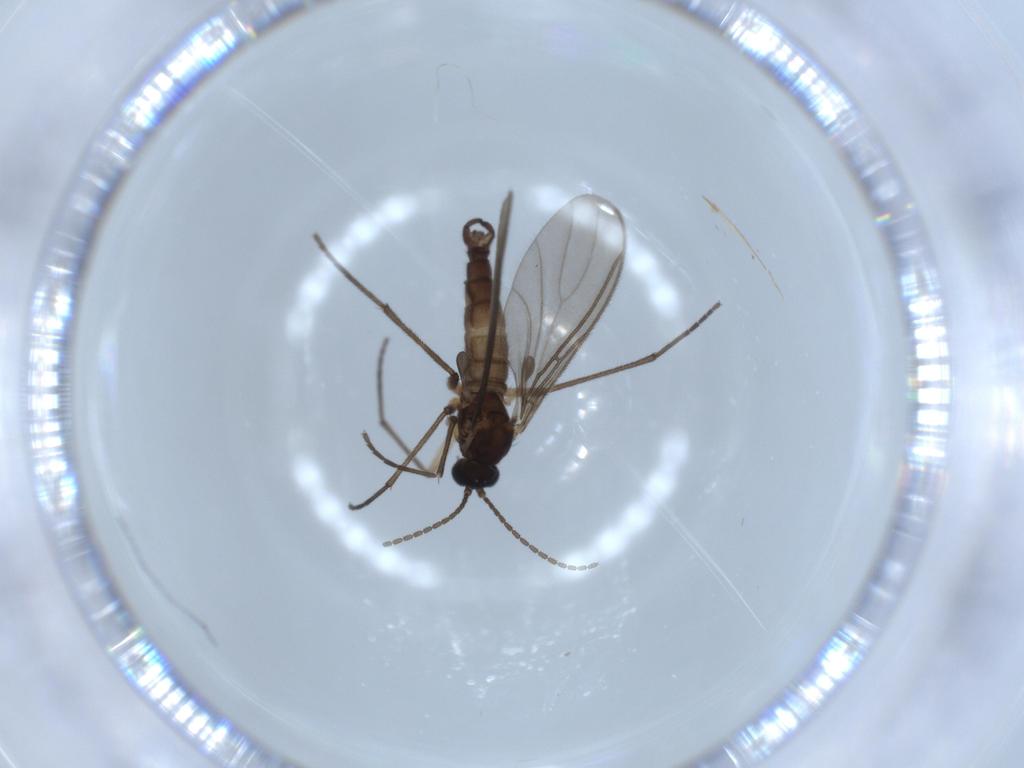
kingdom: Animalia
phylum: Arthropoda
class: Insecta
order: Diptera
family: Sciaridae
